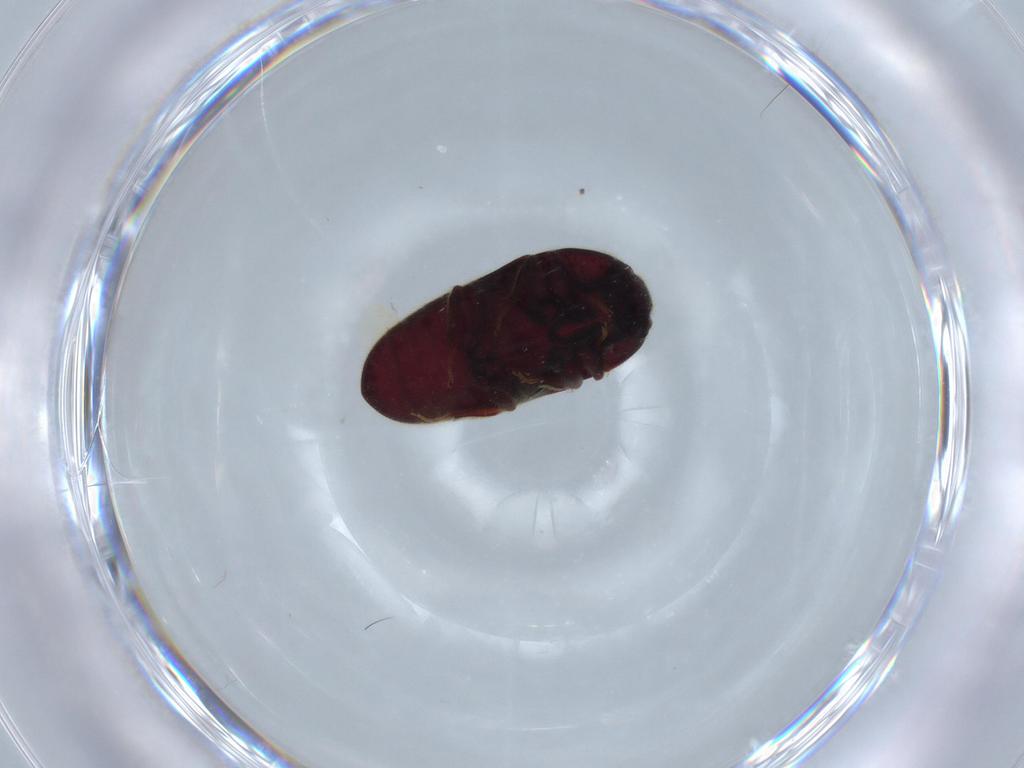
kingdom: Animalia
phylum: Arthropoda
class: Insecta
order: Coleoptera
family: Throscidae
